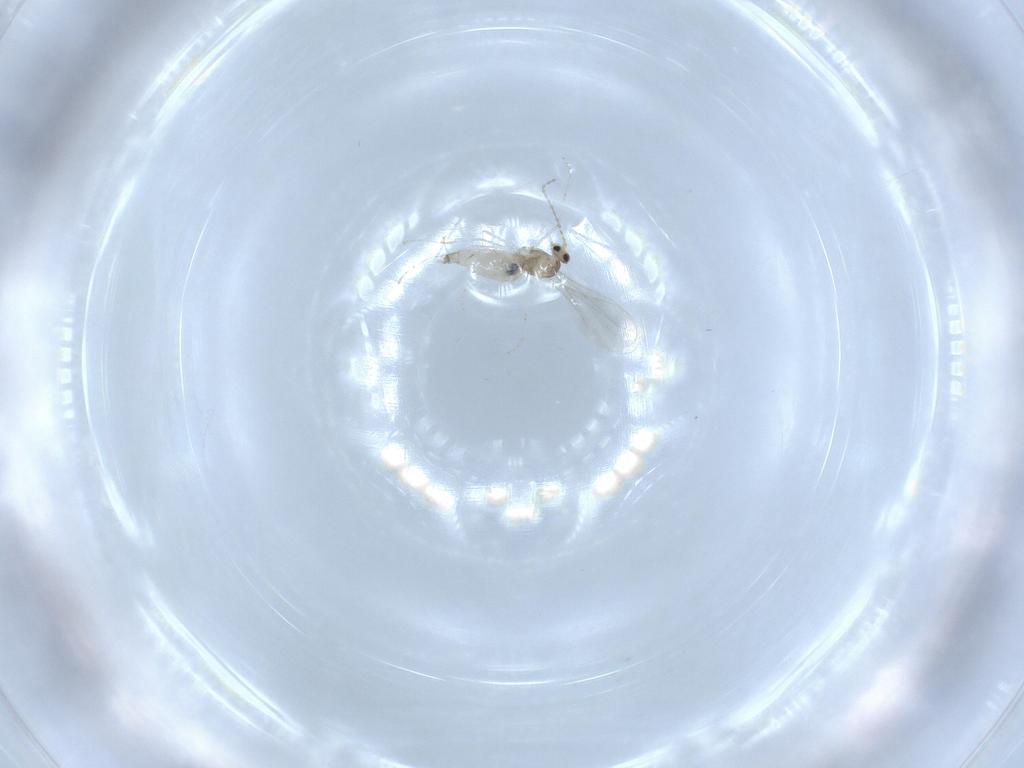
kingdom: Animalia
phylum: Arthropoda
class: Insecta
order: Diptera
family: Cecidomyiidae
